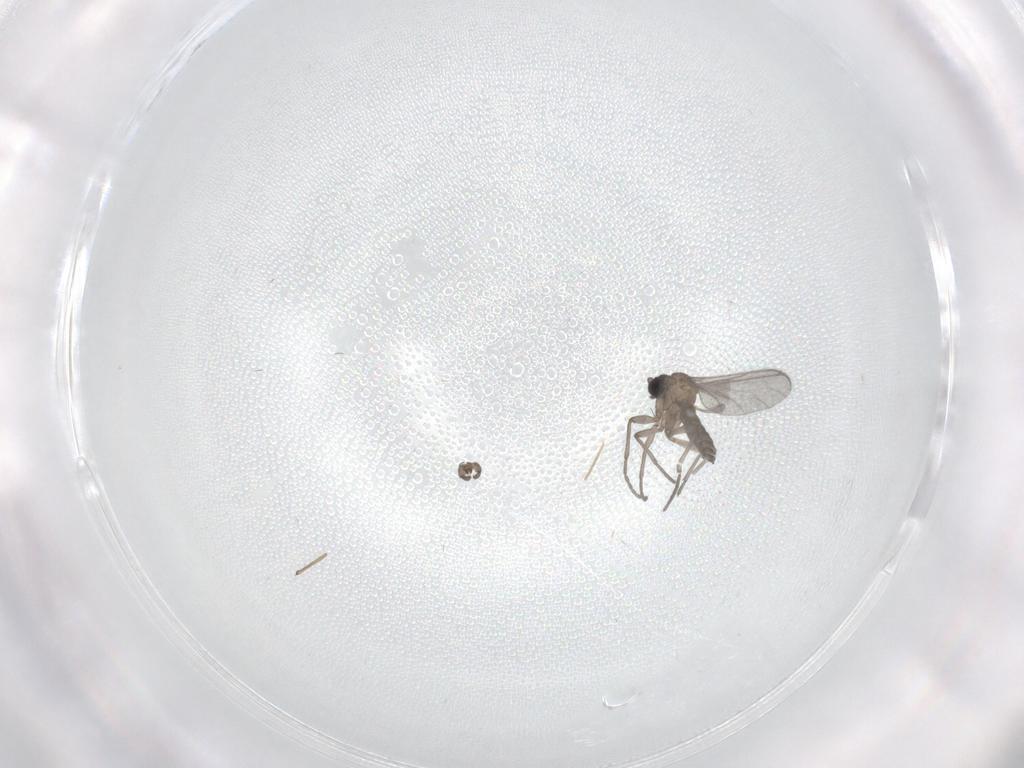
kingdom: Animalia
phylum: Arthropoda
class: Insecta
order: Diptera
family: Sciaridae
